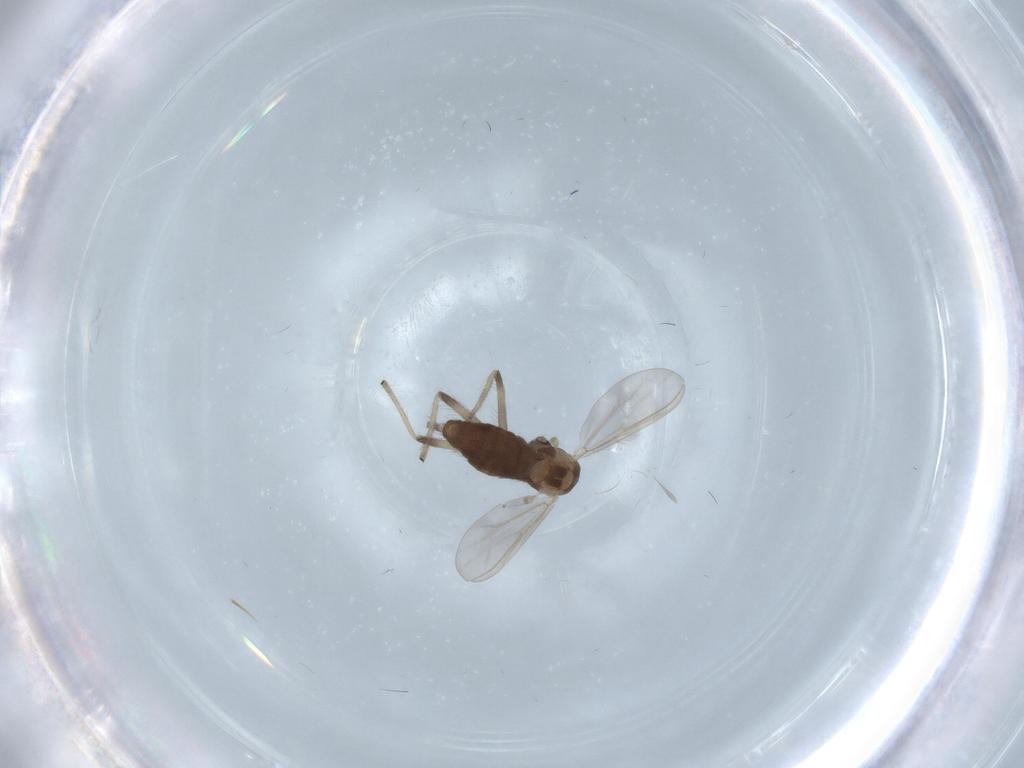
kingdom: Animalia
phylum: Arthropoda
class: Insecta
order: Diptera
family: Chironomidae
